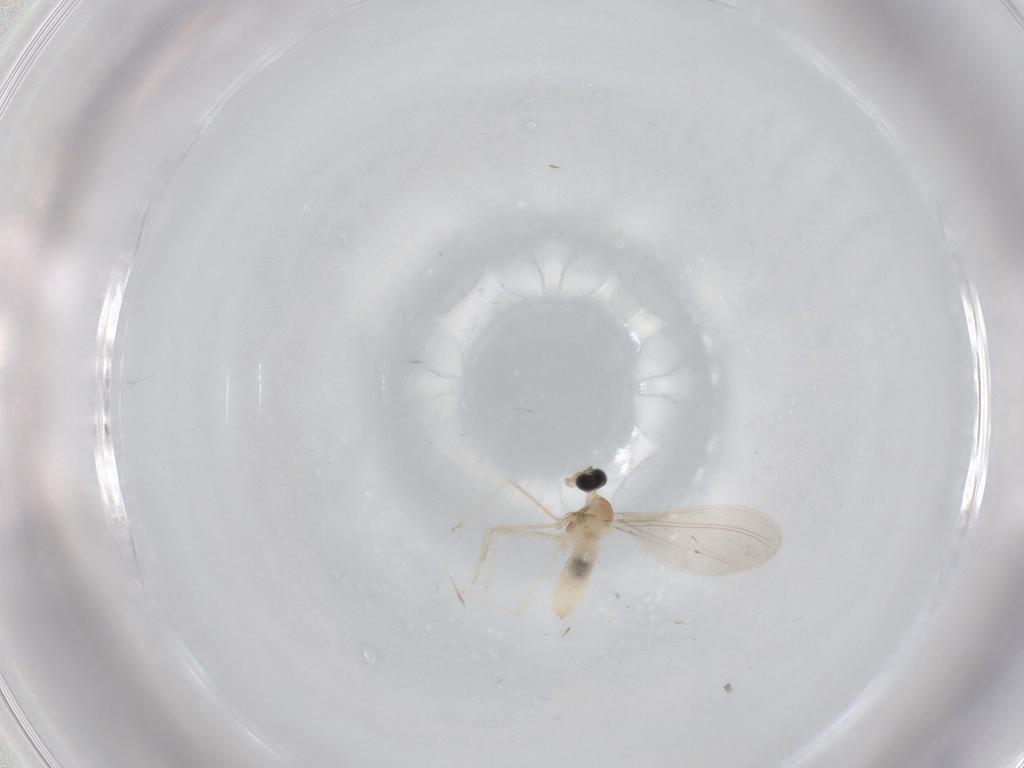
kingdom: Animalia
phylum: Arthropoda
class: Insecta
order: Diptera
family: Cecidomyiidae
